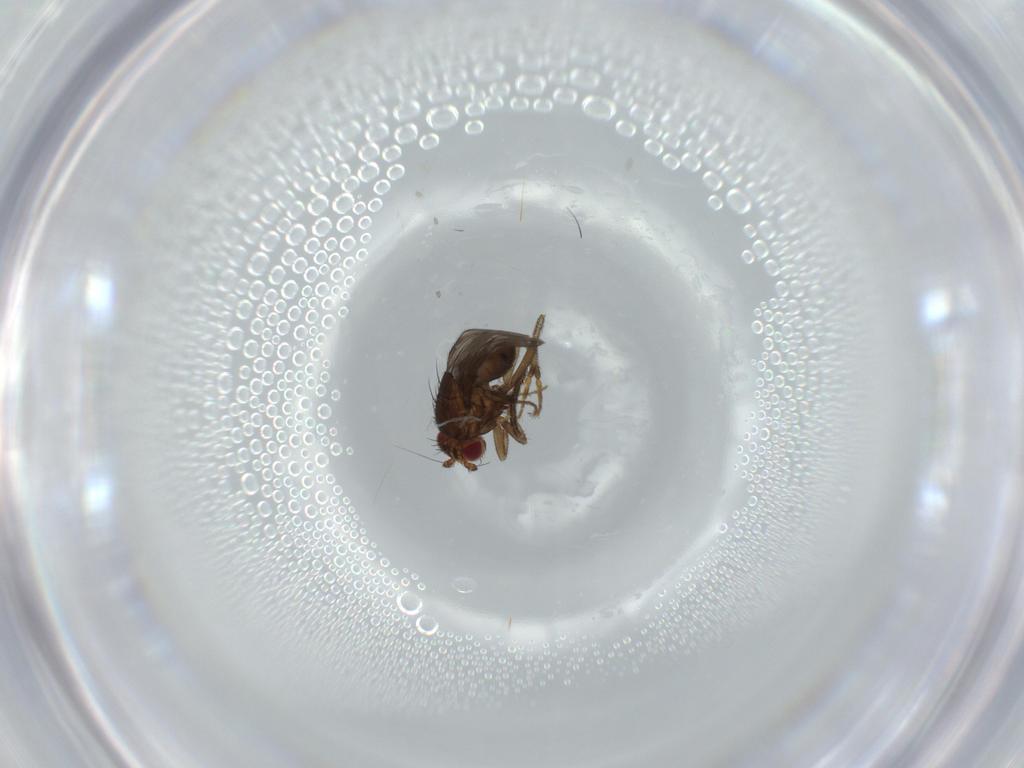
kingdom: Animalia
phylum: Arthropoda
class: Insecta
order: Diptera
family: Cecidomyiidae
